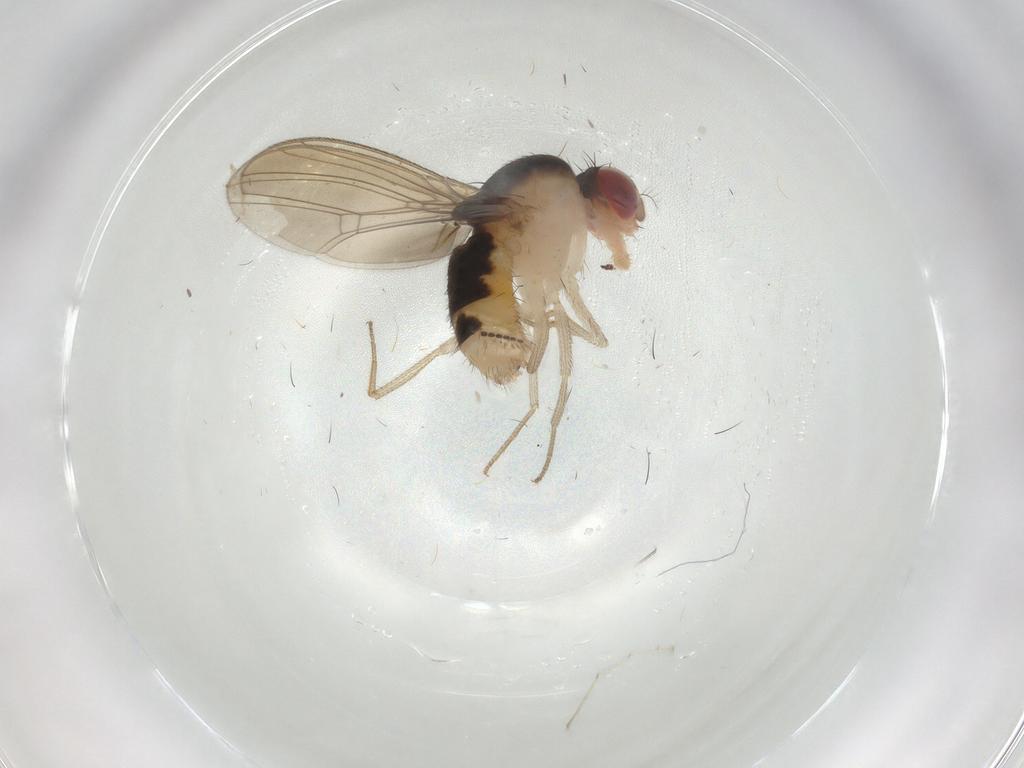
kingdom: Animalia
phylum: Arthropoda
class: Insecta
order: Diptera
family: Drosophilidae
